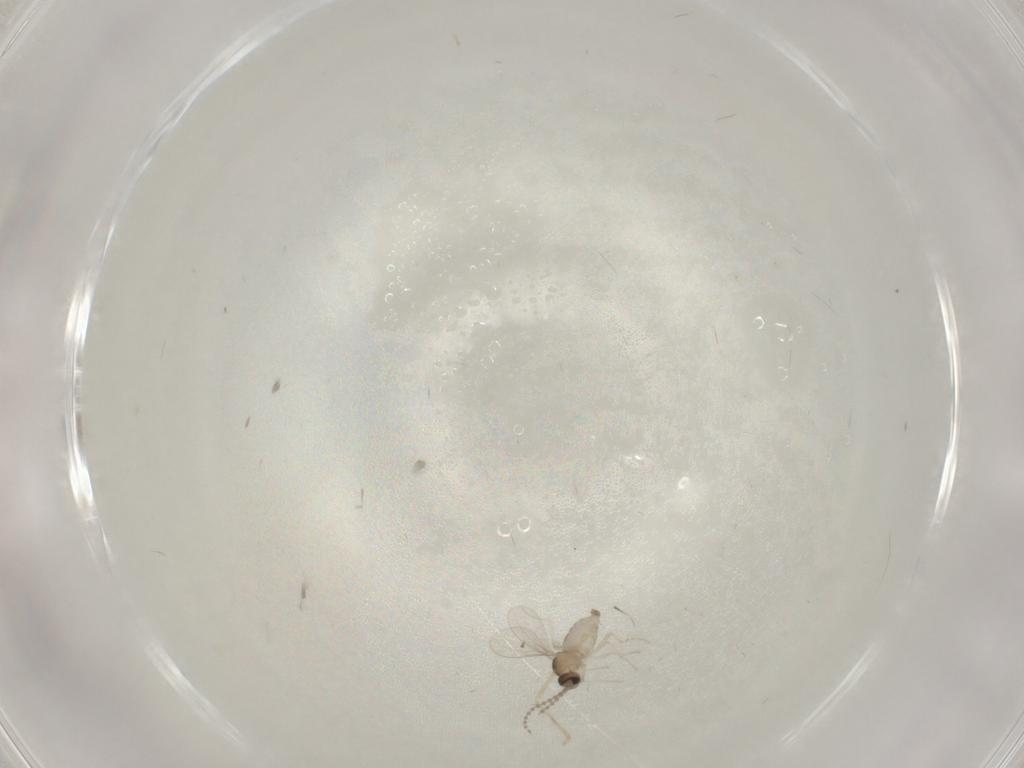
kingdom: Animalia
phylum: Arthropoda
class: Insecta
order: Diptera
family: Cecidomyiidae
